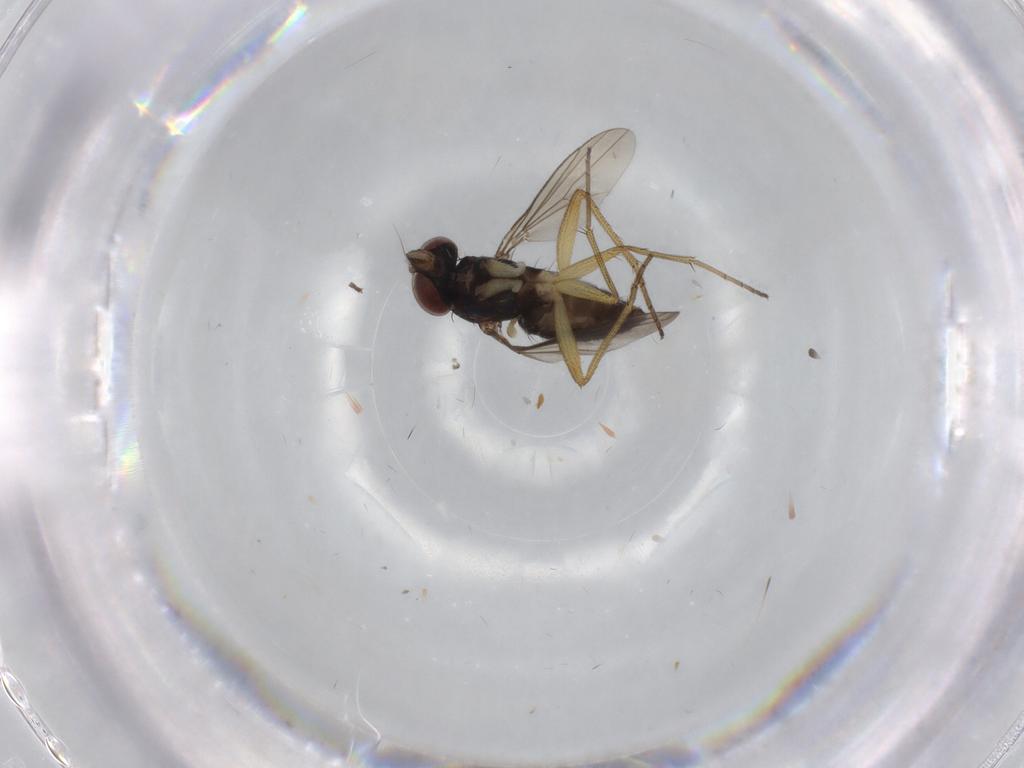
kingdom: Animalia
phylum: Arthropoda
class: Insecta
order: Diptera
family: Dolichopodidae
